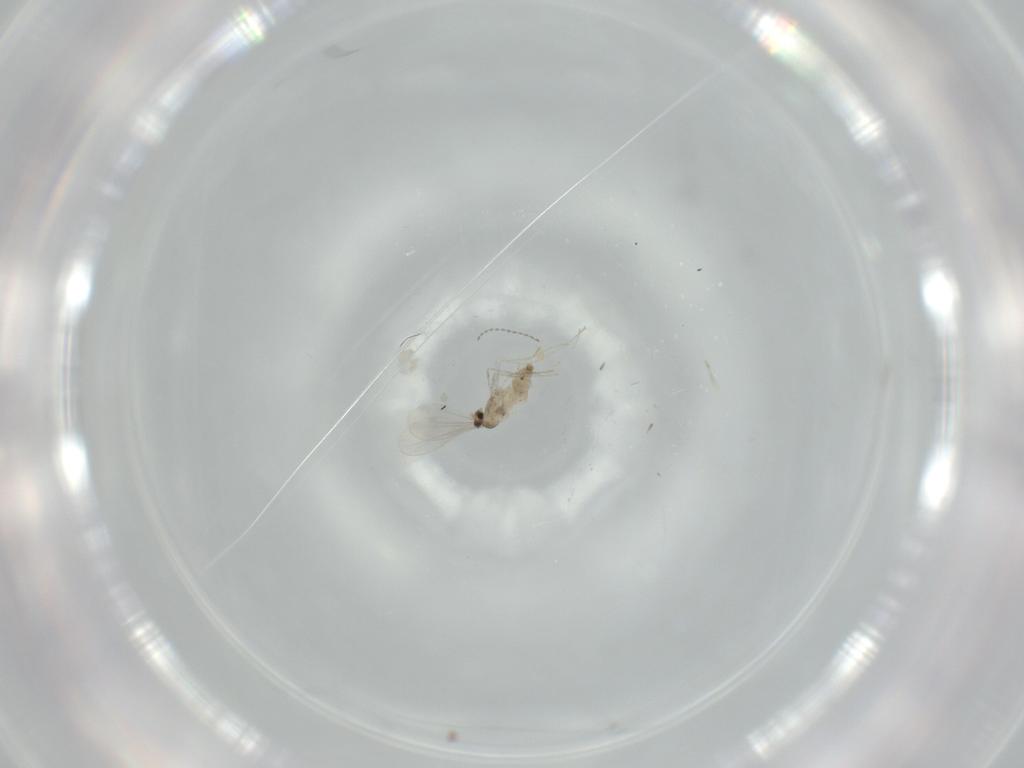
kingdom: Animalia
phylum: Arthropoda
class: Insecta
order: Diptera
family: Cecidomyiidae
